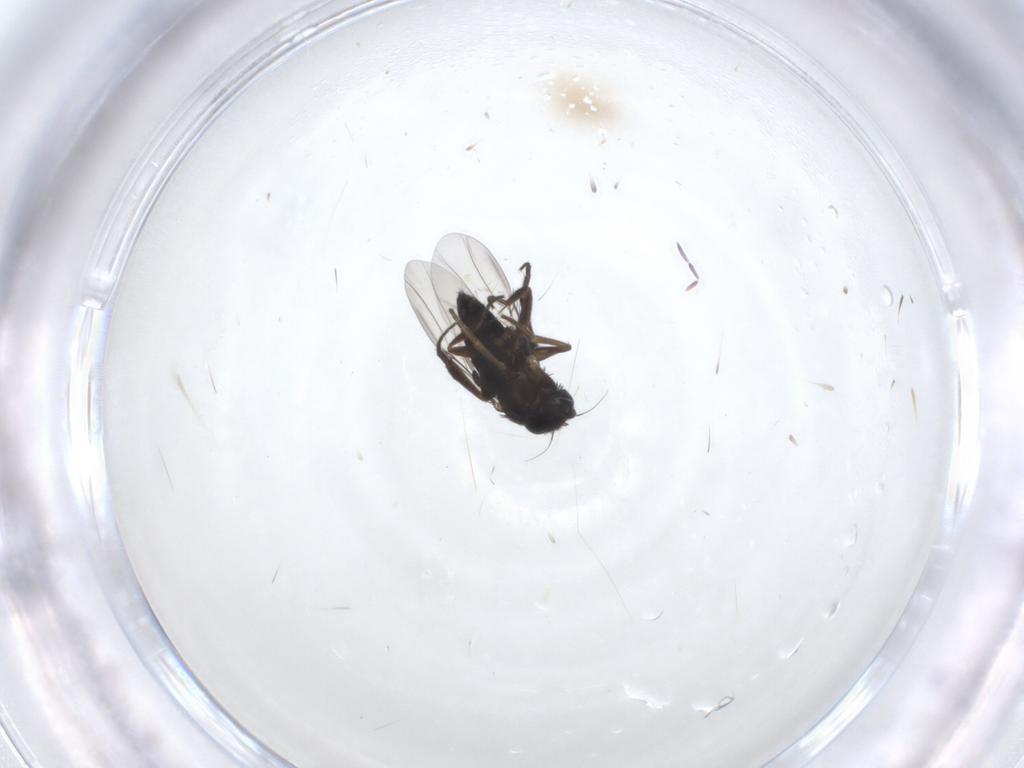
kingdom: Animalia
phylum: Arthropoda
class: Insecta
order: Diptera
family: Phoridae
